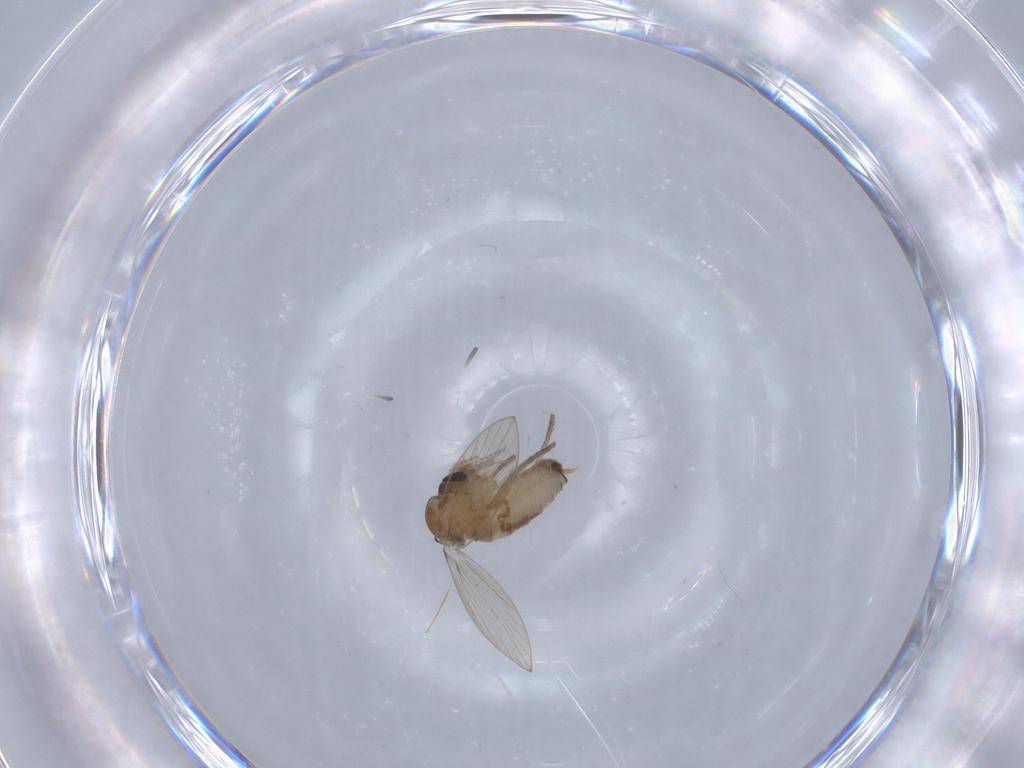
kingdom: Animalia
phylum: Arthropoda
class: Insecta
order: Diptera
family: Psychodidae
